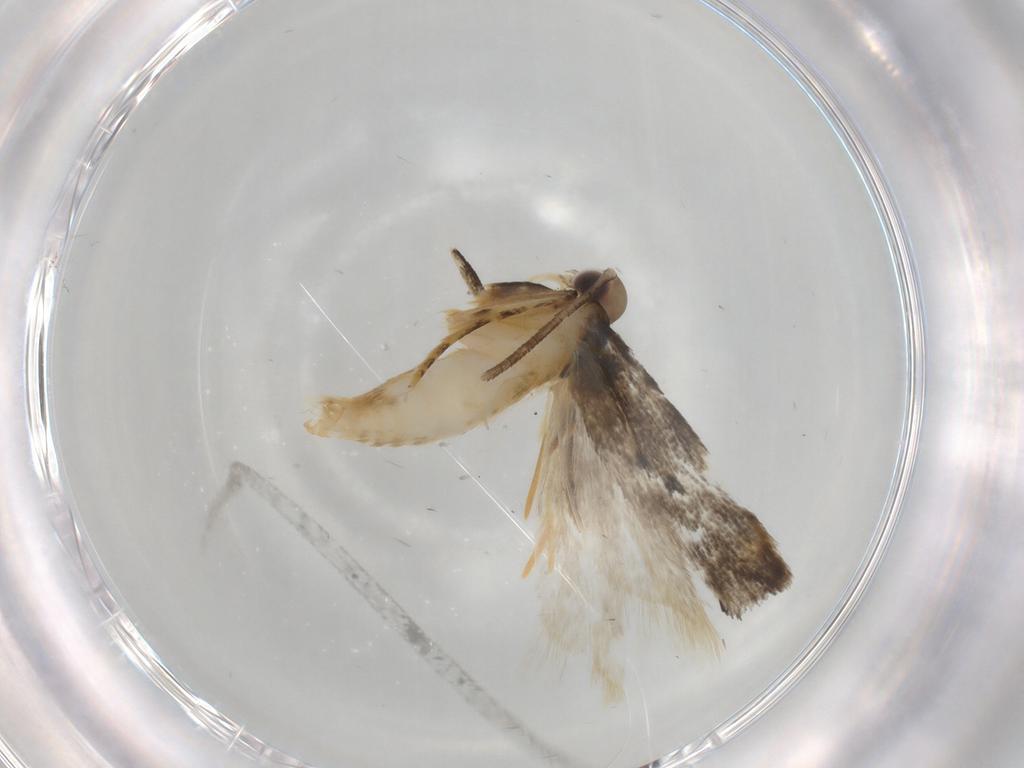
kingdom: Animalia
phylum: Arthropoda
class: Insecta
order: Lepidoptera
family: Autostichidae
